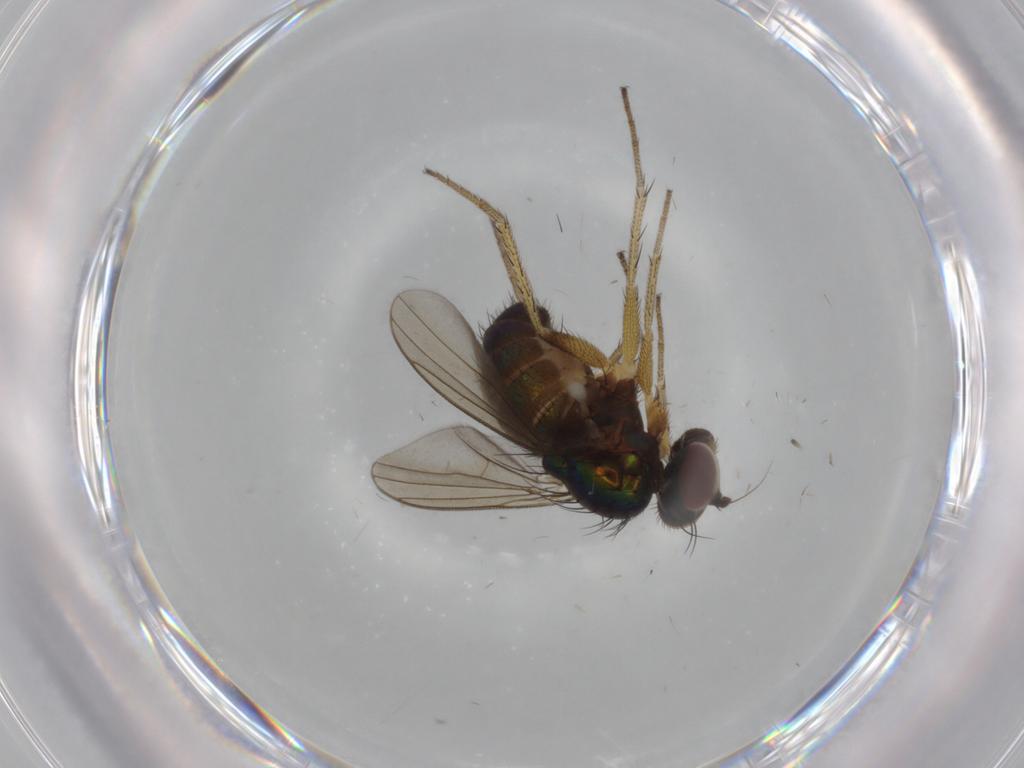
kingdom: Animalia
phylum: Arthropoda
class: Insecta
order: Diptera
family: Dolichopodidae
